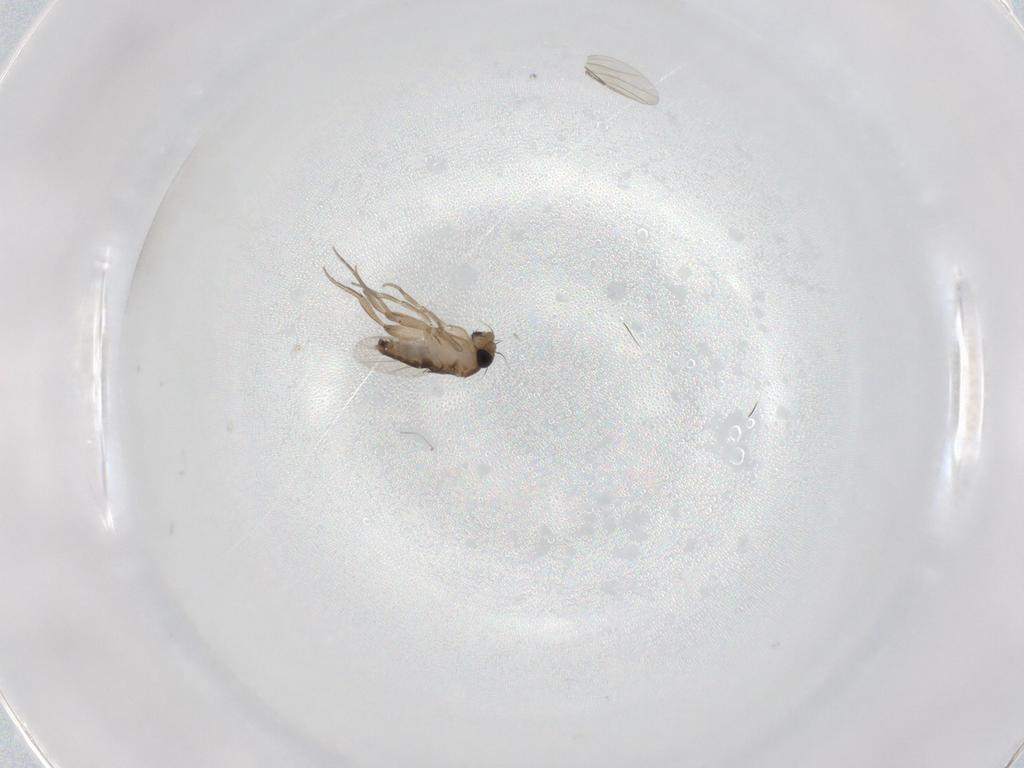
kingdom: Animalia
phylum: Arthropoda
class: Insecta
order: Diptera
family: Phoridae
